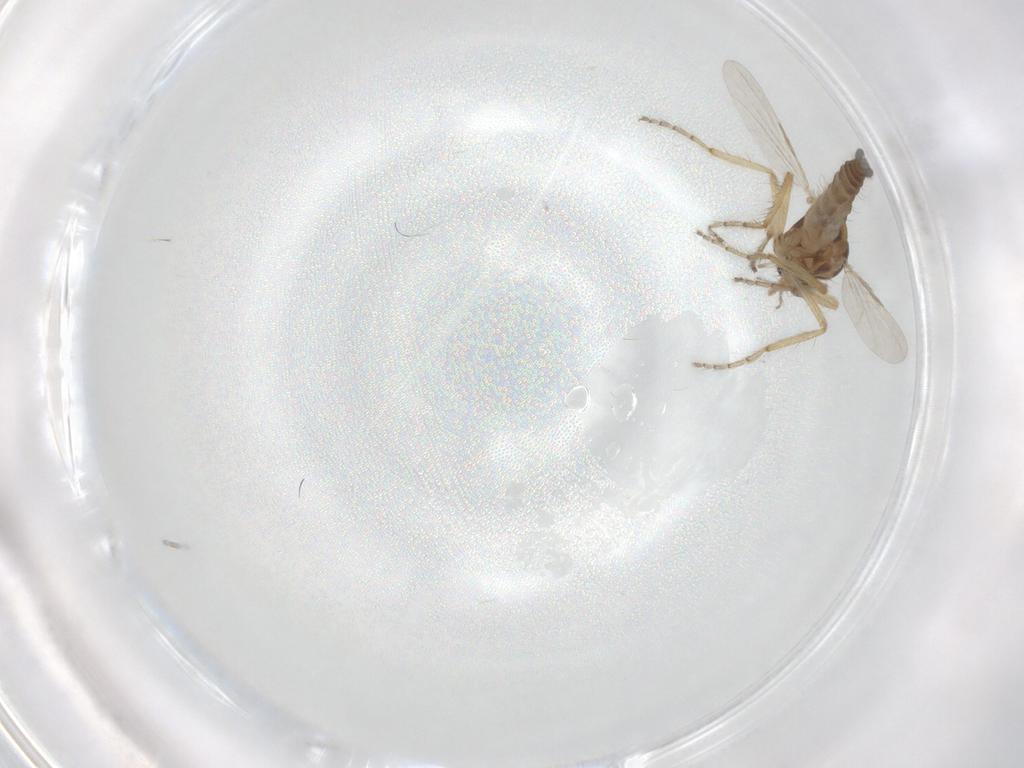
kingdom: Animalia
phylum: Arthropoda
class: Insecta
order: Diptera
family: Ceratopogonidae
